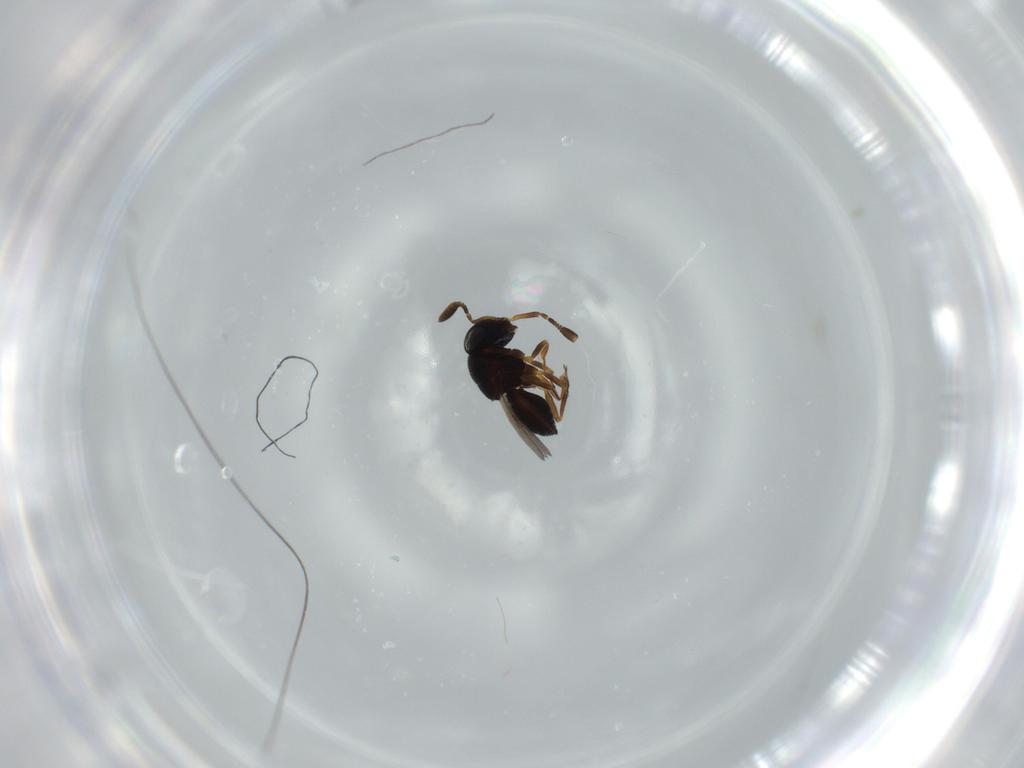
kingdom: Animalia
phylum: Arthropoda
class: Insecta
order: Coleoptera
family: Curculionidae
